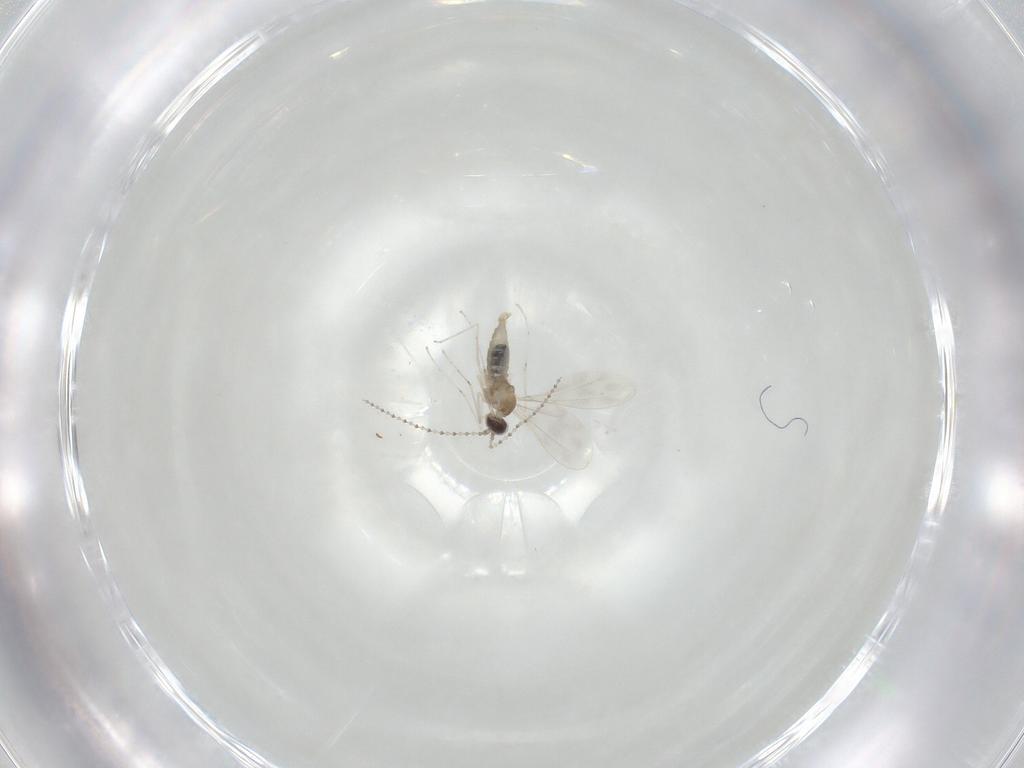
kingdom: Animalia
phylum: Arthropoda
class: Insecta
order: Diptera
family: Cecidomyiidae
